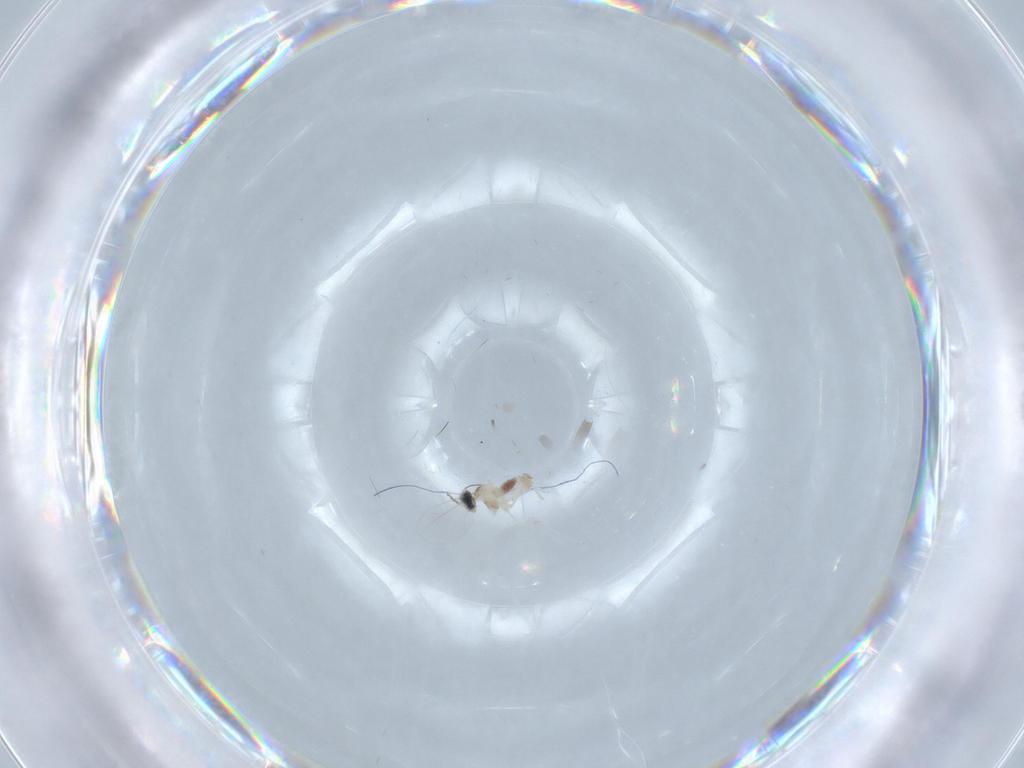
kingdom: Animalia
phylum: Arthropoda
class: Insecta
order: Diptera
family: Cecidomyiidae
